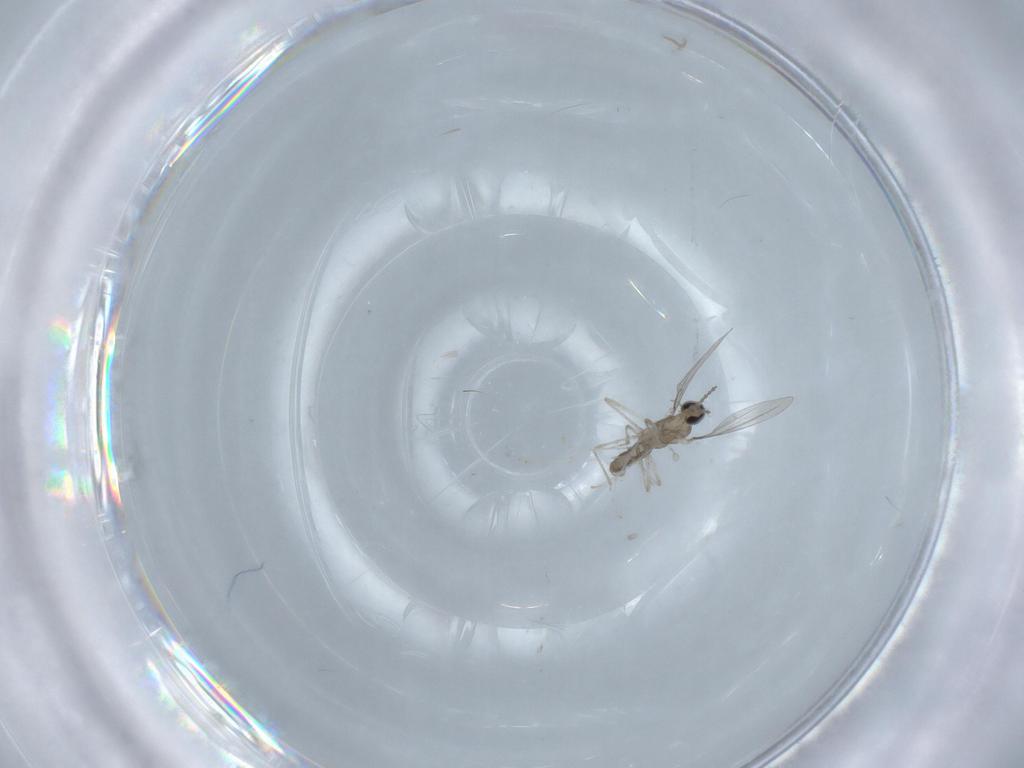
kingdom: Animalia
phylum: Arthropoda
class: Insecta
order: Diptera
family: Cecidomyiidae
